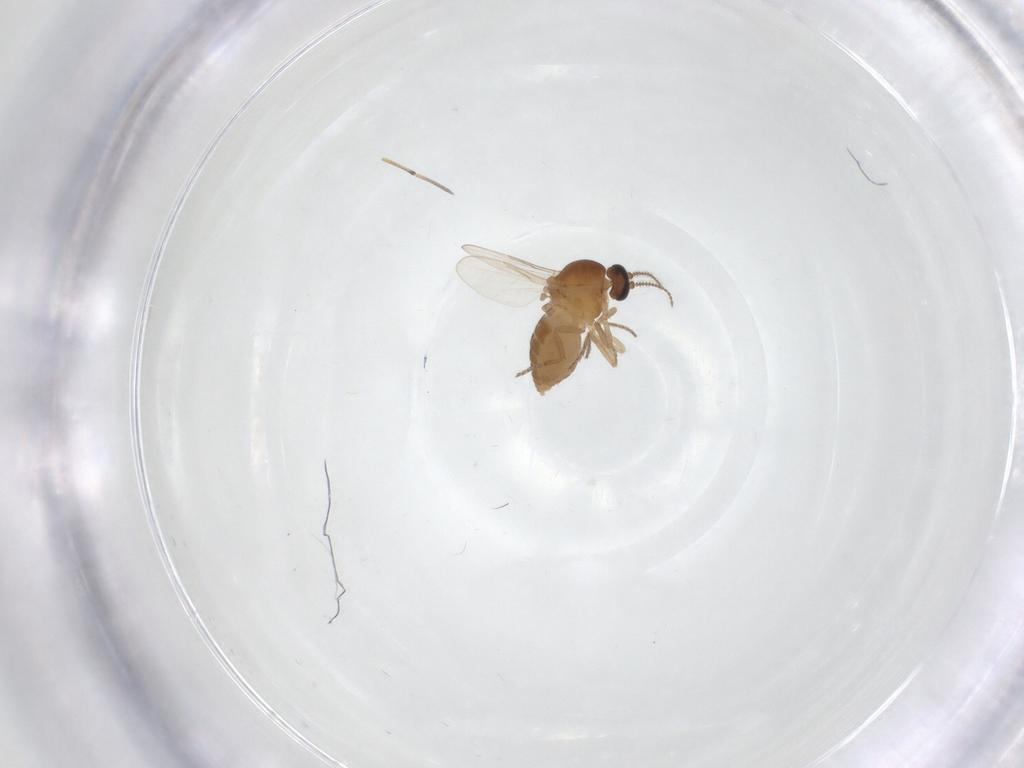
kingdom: Animalia
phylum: Arthropoda
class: Insecta
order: Diptera
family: Ceratopogonidae
